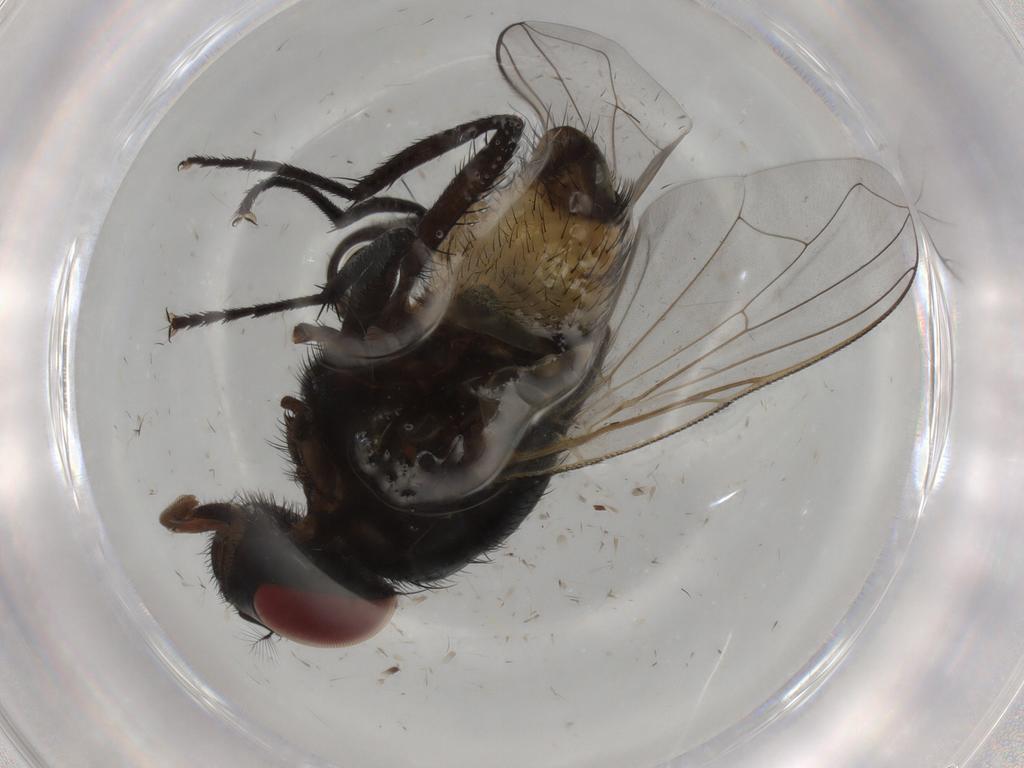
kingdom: Animalia
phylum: Arthropoda
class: Insecta
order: Diptera
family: Muscidae
